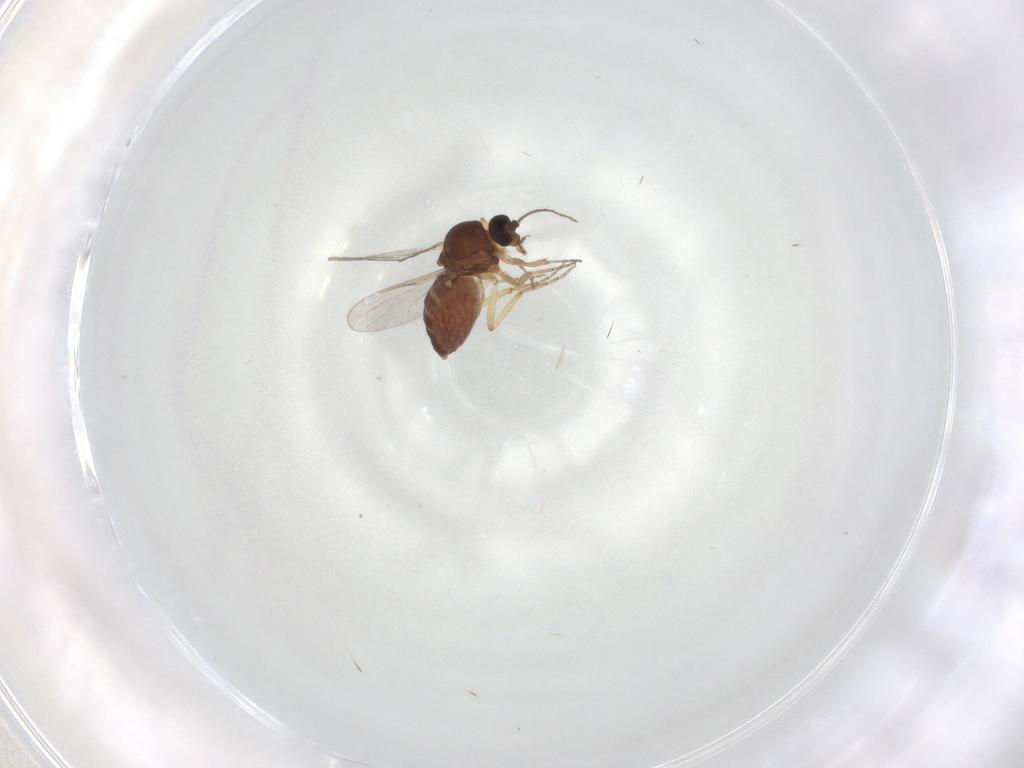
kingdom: Animalia
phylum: Arthropoda
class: Insecta
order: Diptera
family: Ceratopogonidae
